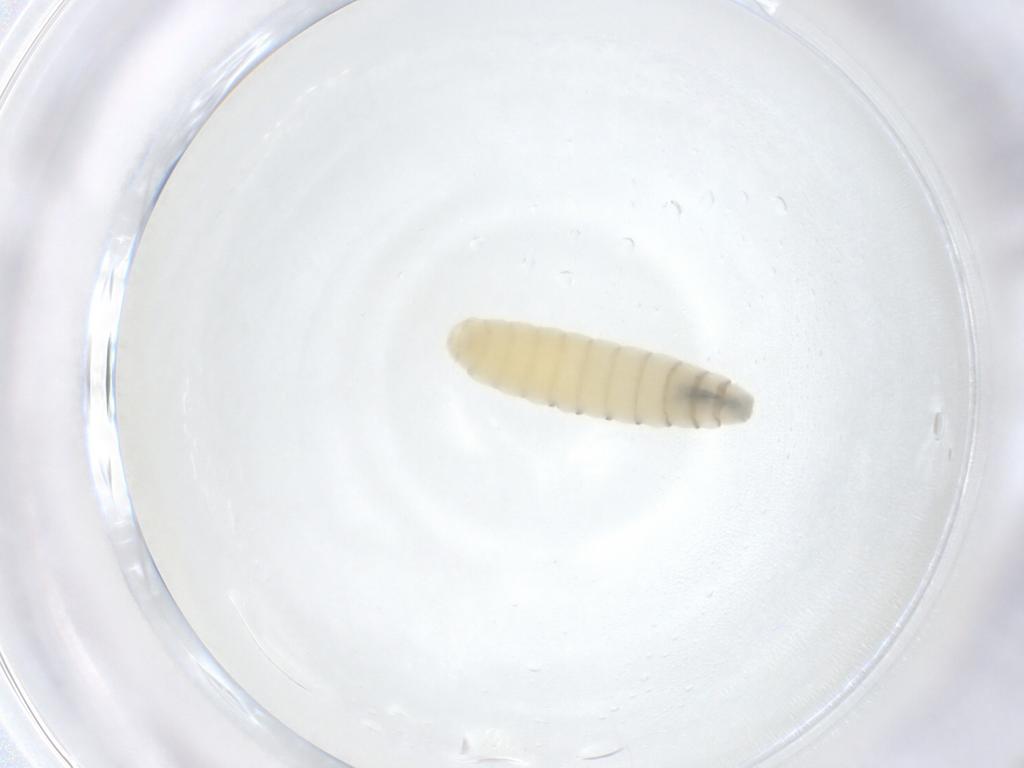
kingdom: Animalia
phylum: Arthropoda
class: Insecta
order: Diptera
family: Sarcophagidae
